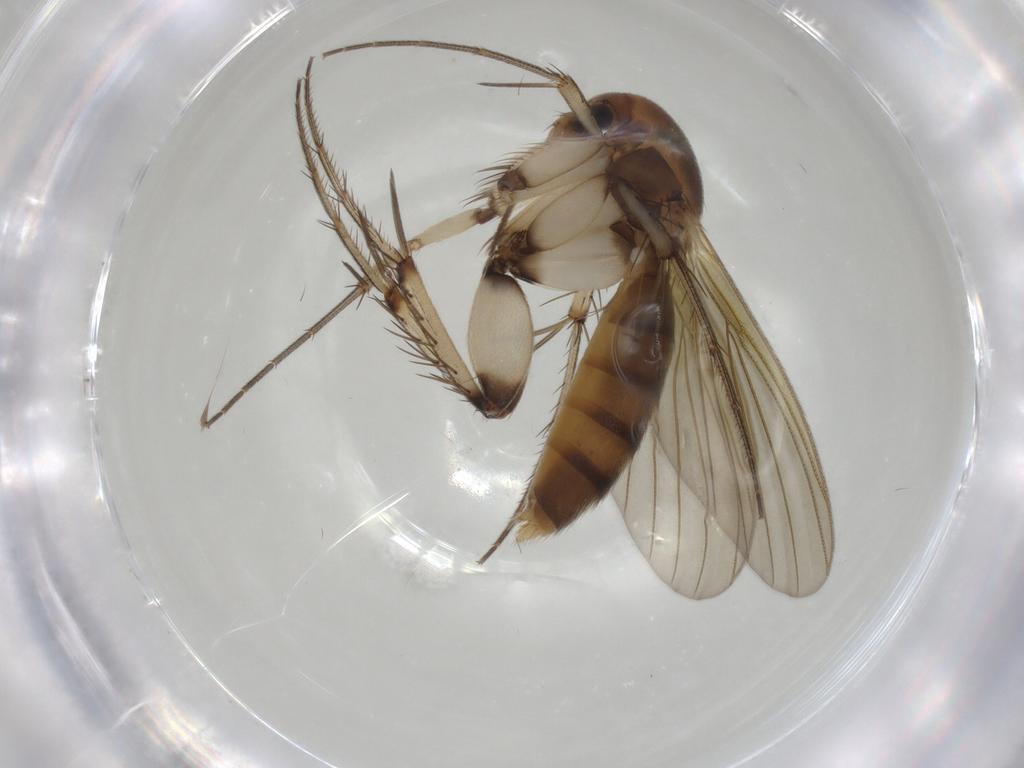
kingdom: Animalia
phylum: Arthropoda
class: Insecta
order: Diptera
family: Mycetophilidae
